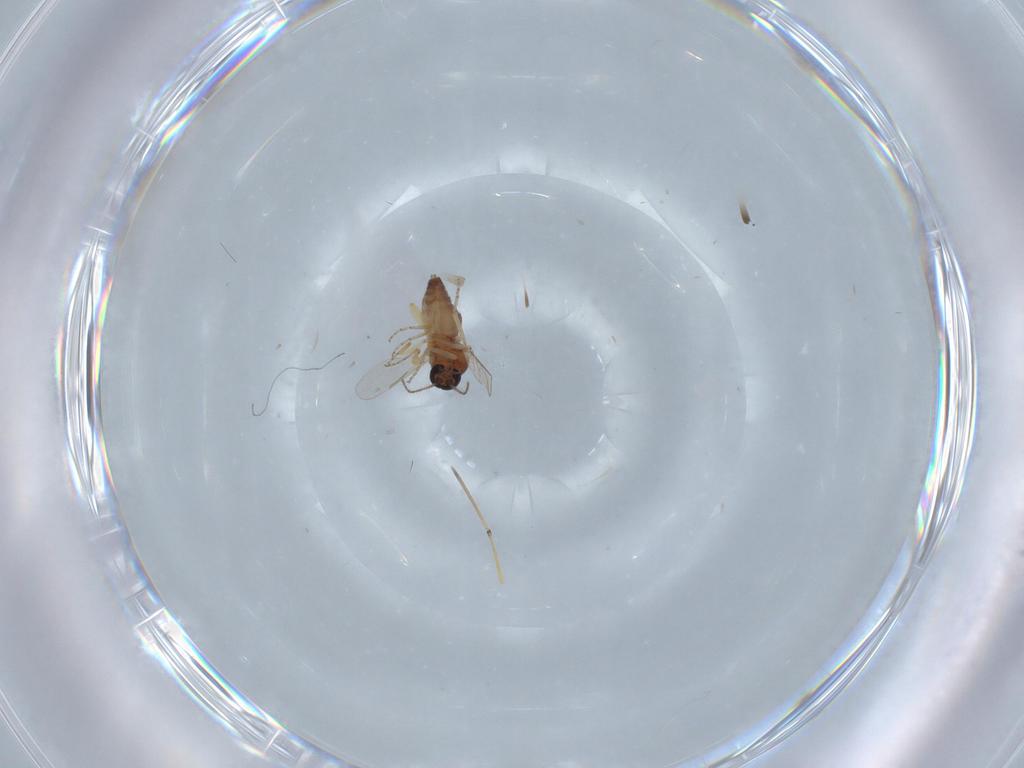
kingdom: Animalia
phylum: Arthropoda
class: Insecta
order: Diptera
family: Ceratopogonidae
